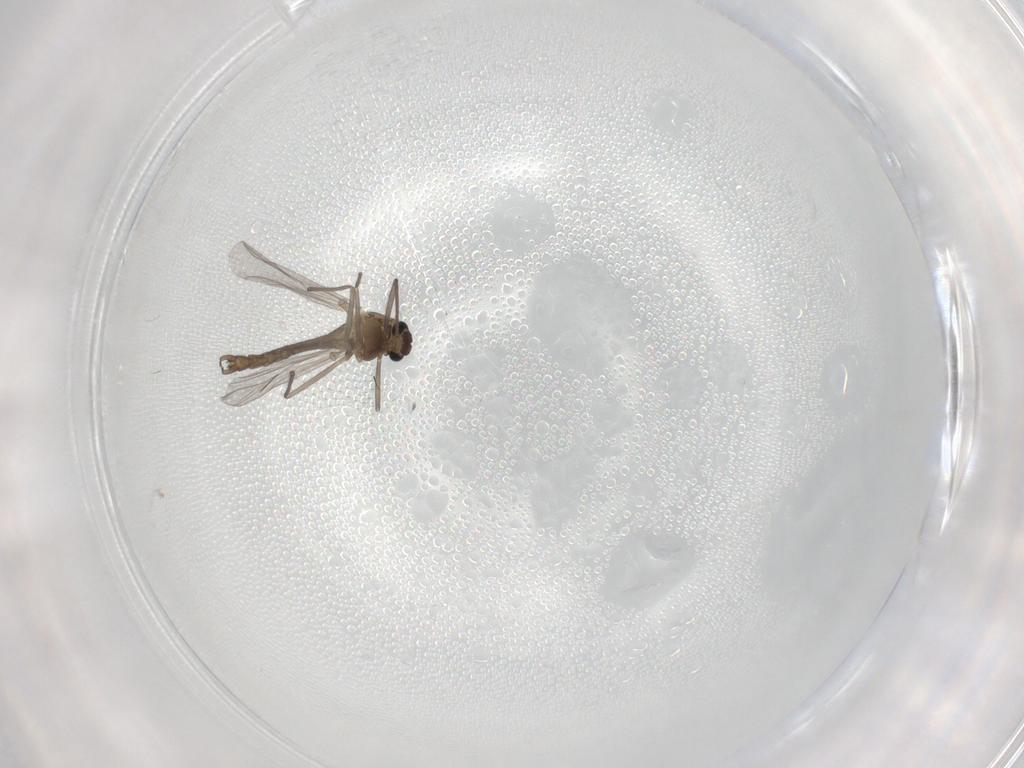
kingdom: Animalia
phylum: Arthropoda
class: Insecta
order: Diptera
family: Chironomidae
